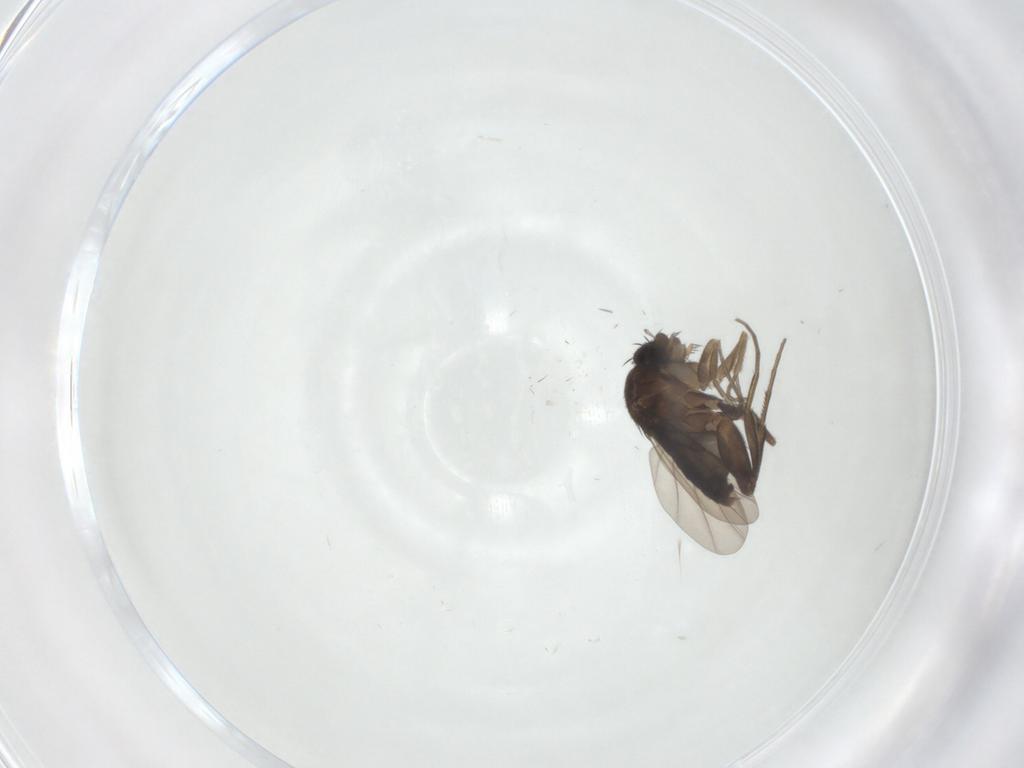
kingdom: Animalia
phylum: Arthropoda
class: Insecta
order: Diptera
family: Phoridae
